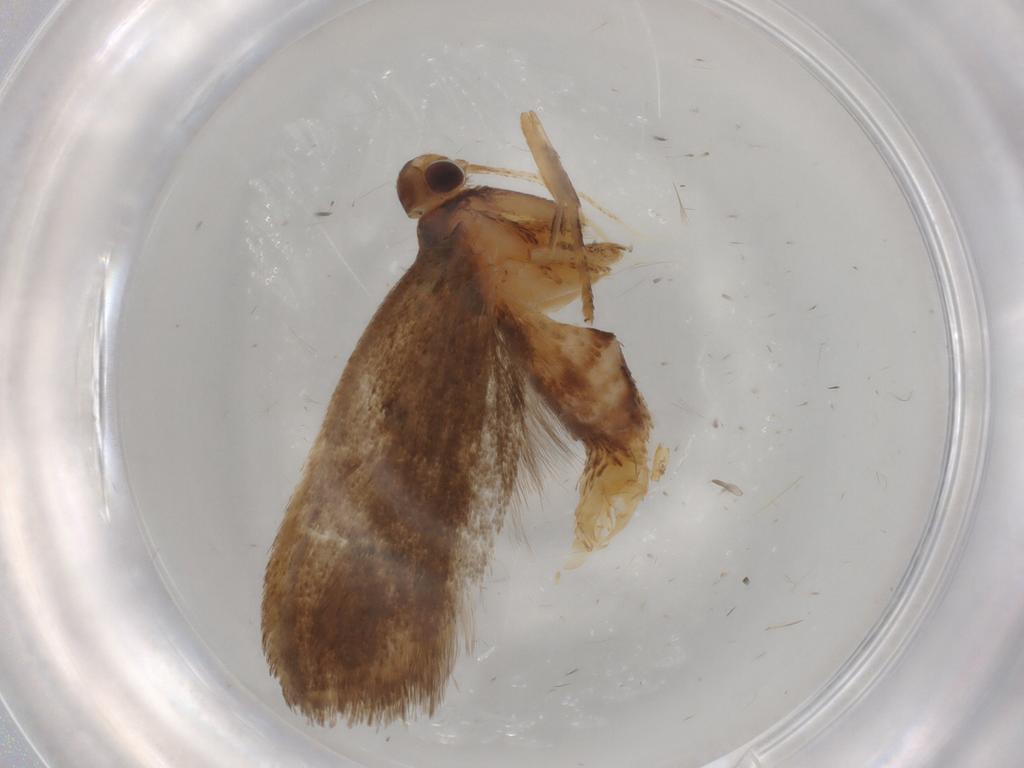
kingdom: Animalia
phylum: Arthropoda
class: Insecta
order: Lepidoptera
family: Lecithoceridae
